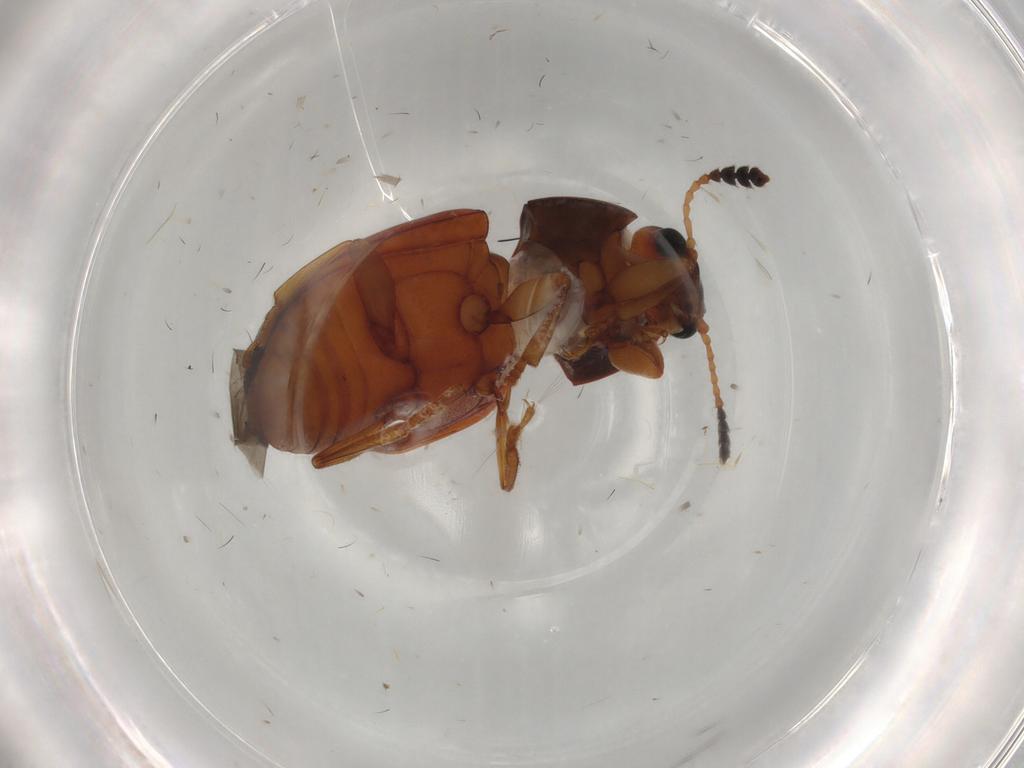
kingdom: Animalia
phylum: Arthropoda
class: Insecta
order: Coleoptera
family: Erotylidae
